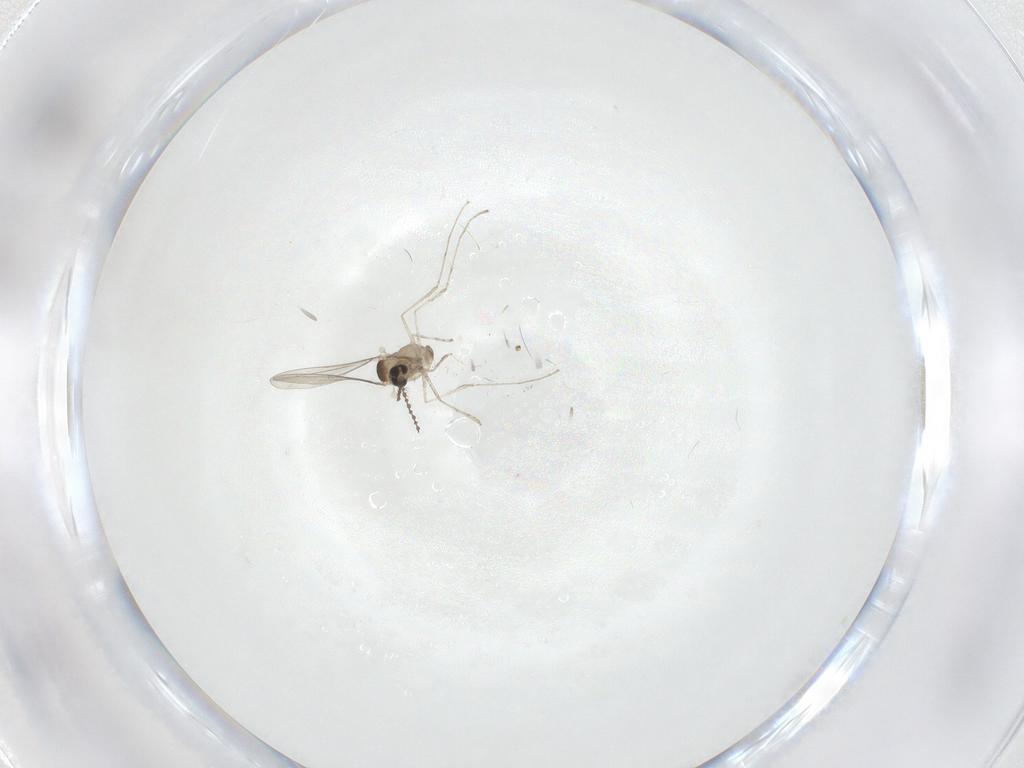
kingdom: Animalia
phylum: Arthropoda
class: Insecta
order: Diptera
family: Cecidomyiidae
